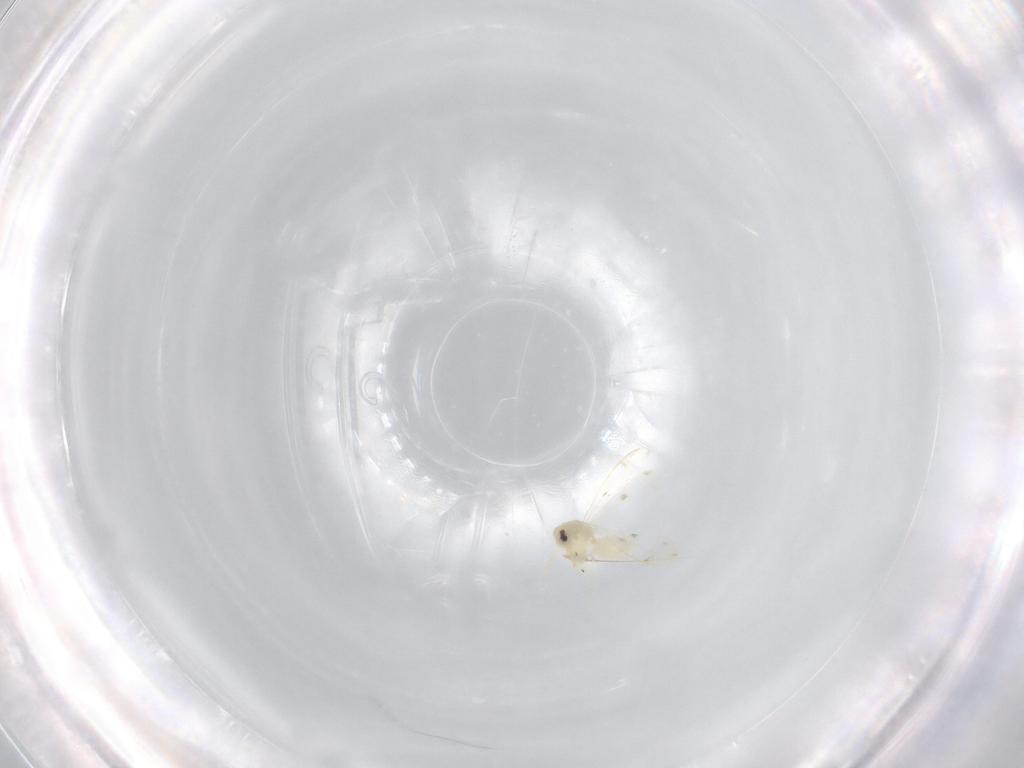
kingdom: Animalia
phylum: Arthropoda
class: Insecta
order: Hemiptera
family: Aleyrodidae
